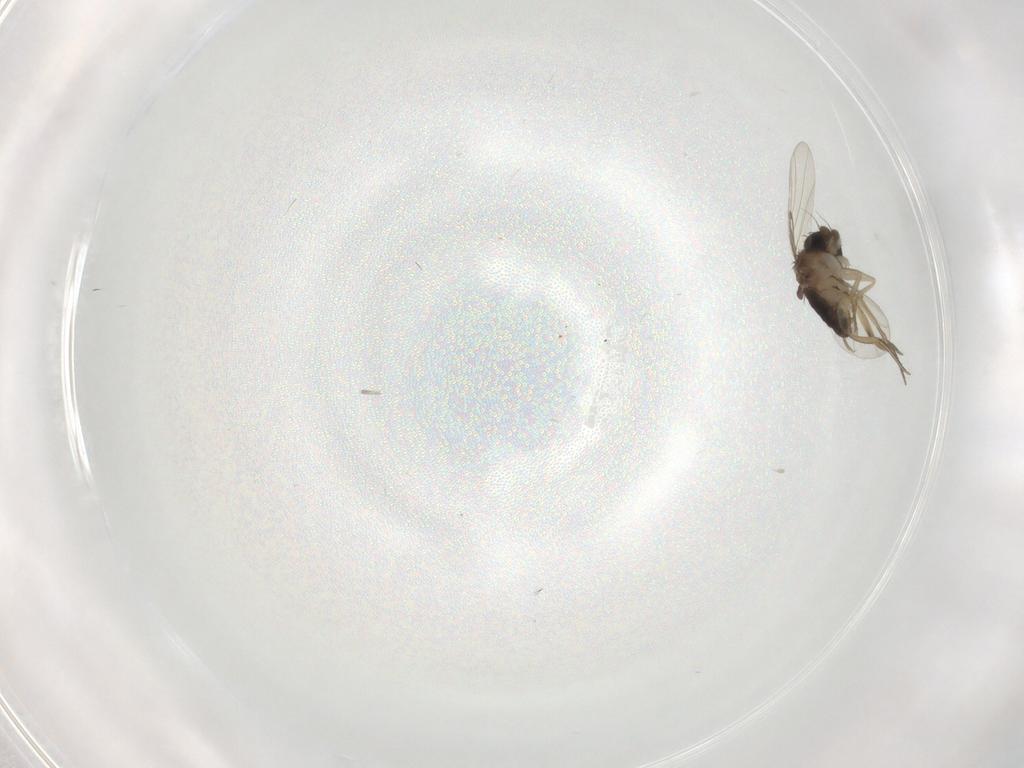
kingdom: Animalia
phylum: Arthropoda
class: Insecta
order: Diptera
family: Phoridae
